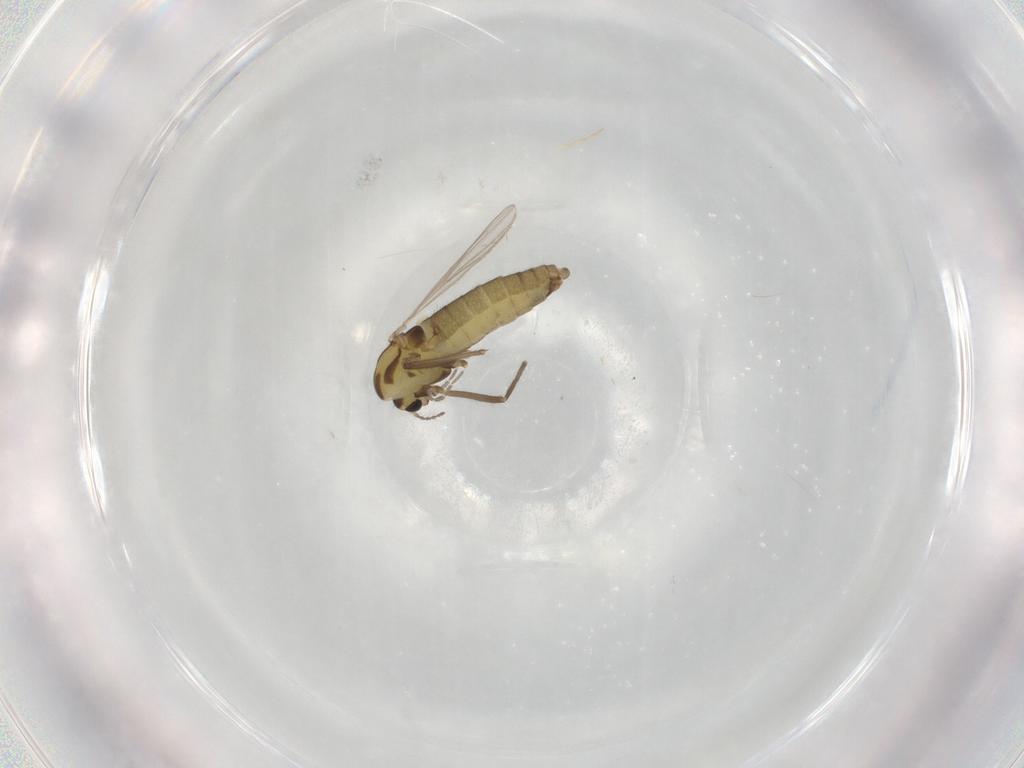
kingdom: Animalia
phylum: Arthropoda
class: Insecta
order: Diptera
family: Chironomidae
